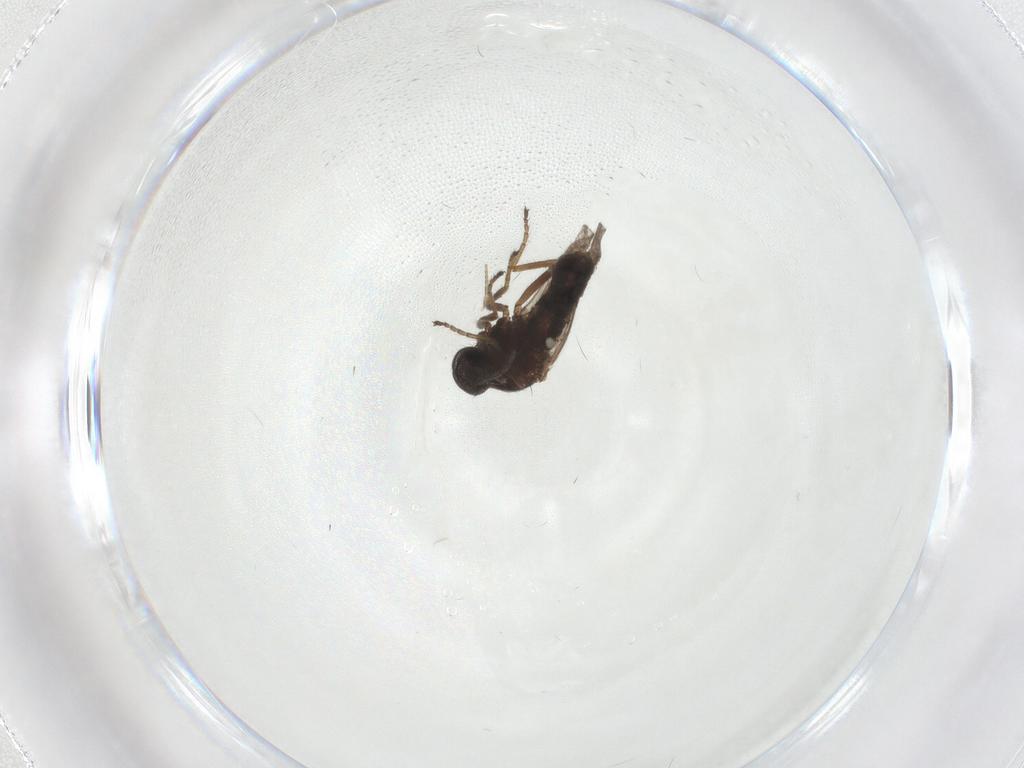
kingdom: Animalia
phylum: Arthropoda
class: Insecta
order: Diptera
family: Ceratopogonidae
